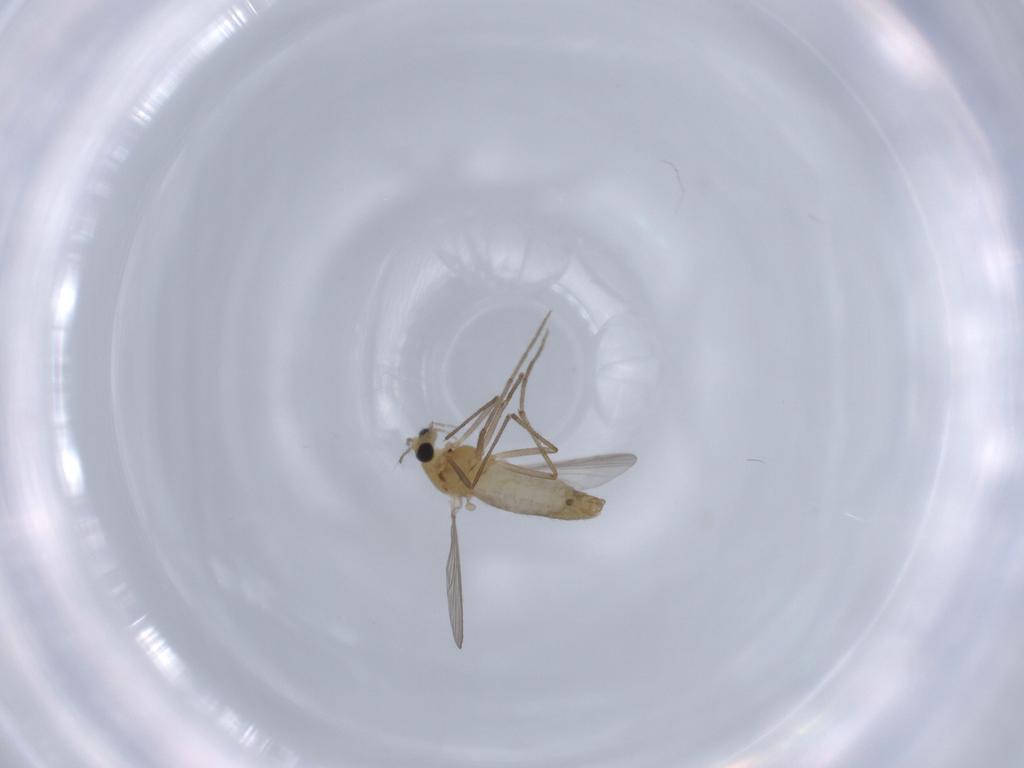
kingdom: Animalia
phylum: Arthropoda
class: Insecta
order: Diptera
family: Chironomidae
